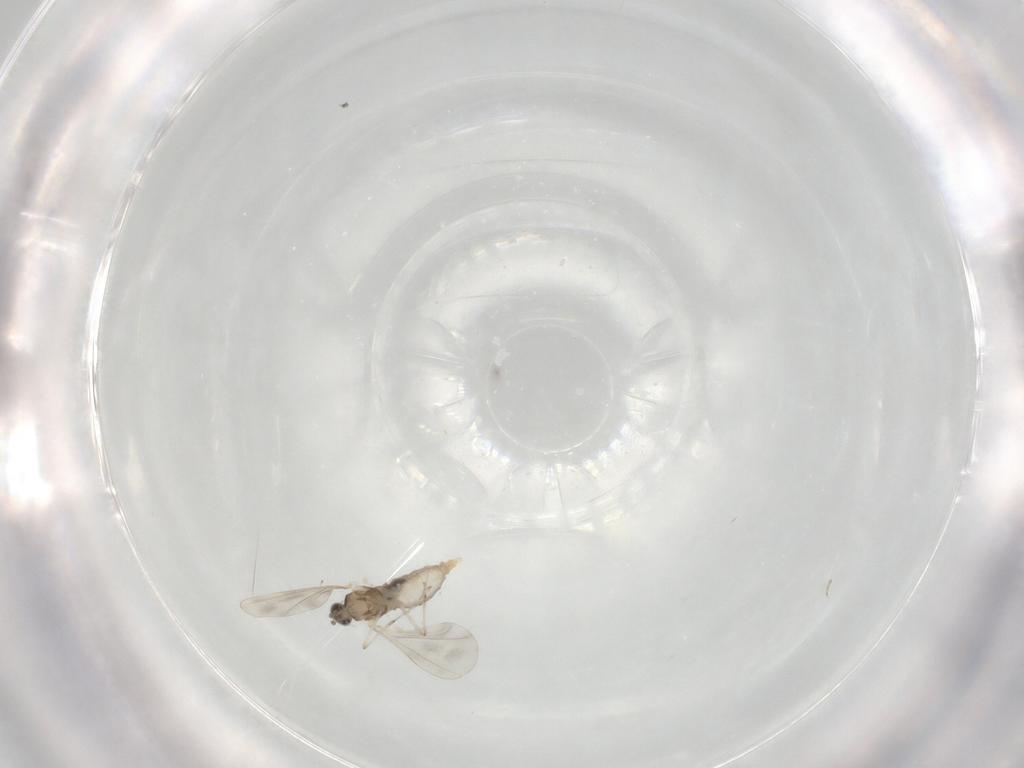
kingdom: Animalia
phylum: Arthropoda
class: Insecta
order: Diptera
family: Cecidomyiidae
